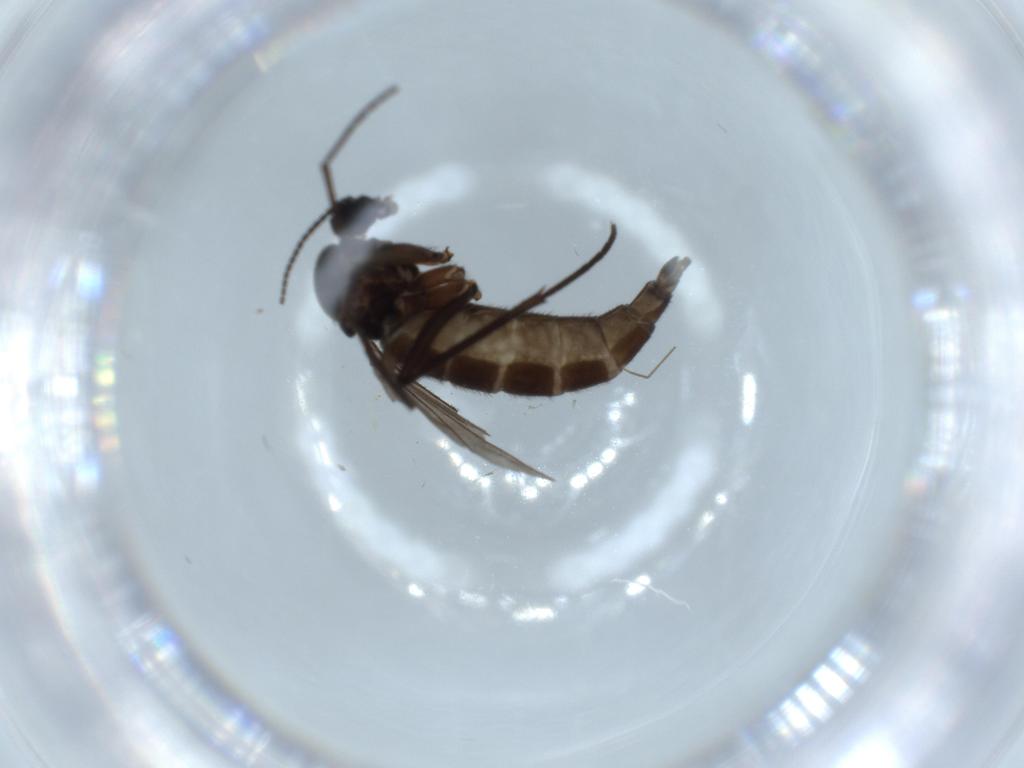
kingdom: Animalia
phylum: Arthropoda
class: Insecta
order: Diptera
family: Sciaridae
